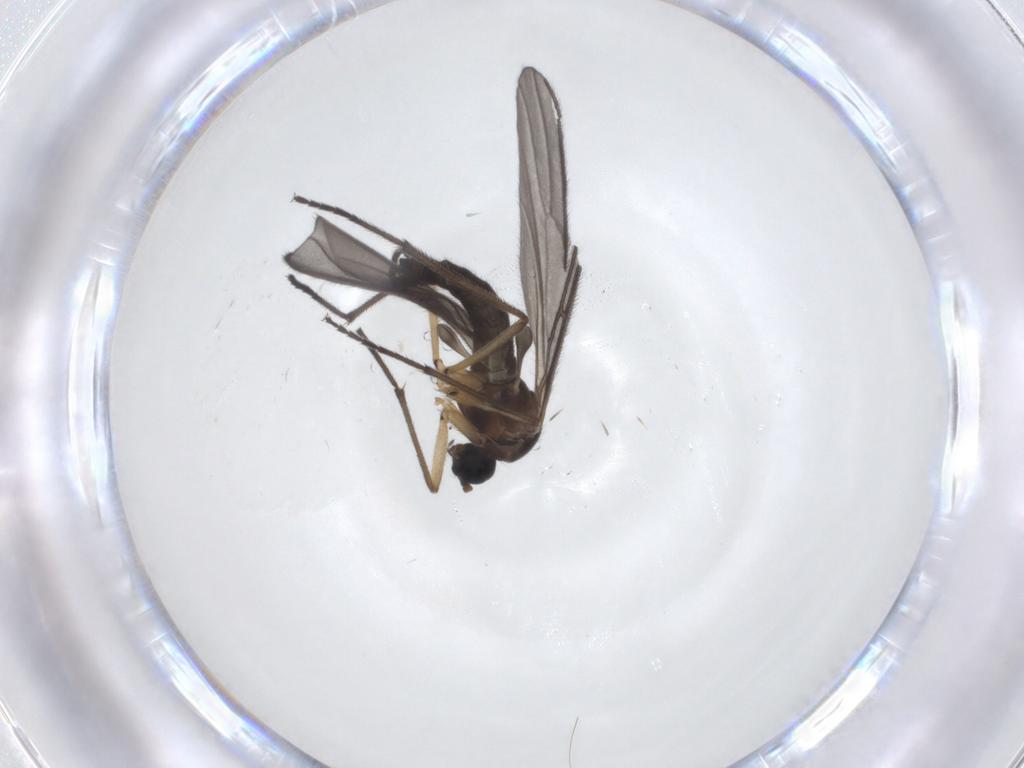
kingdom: Animalia
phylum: Arthropoda
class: Insecta
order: Diptera
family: Sciaridae
